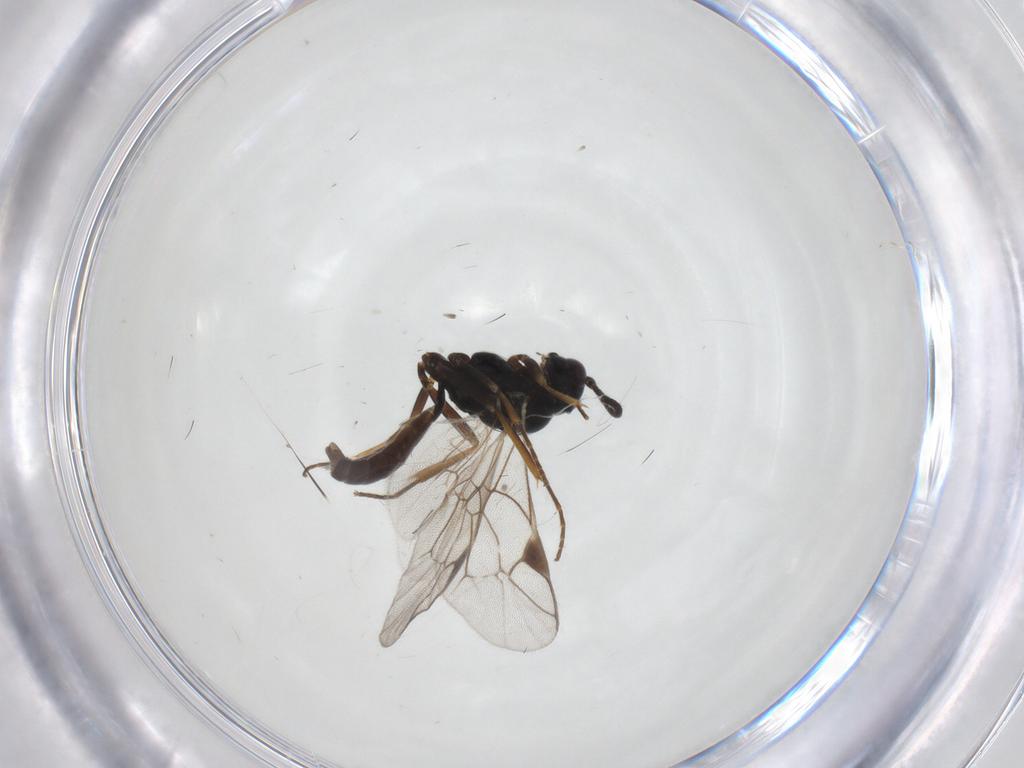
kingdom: Animalia
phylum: Arthropoda
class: Insecta
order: Hymenoptera
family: Ichneumonidae
